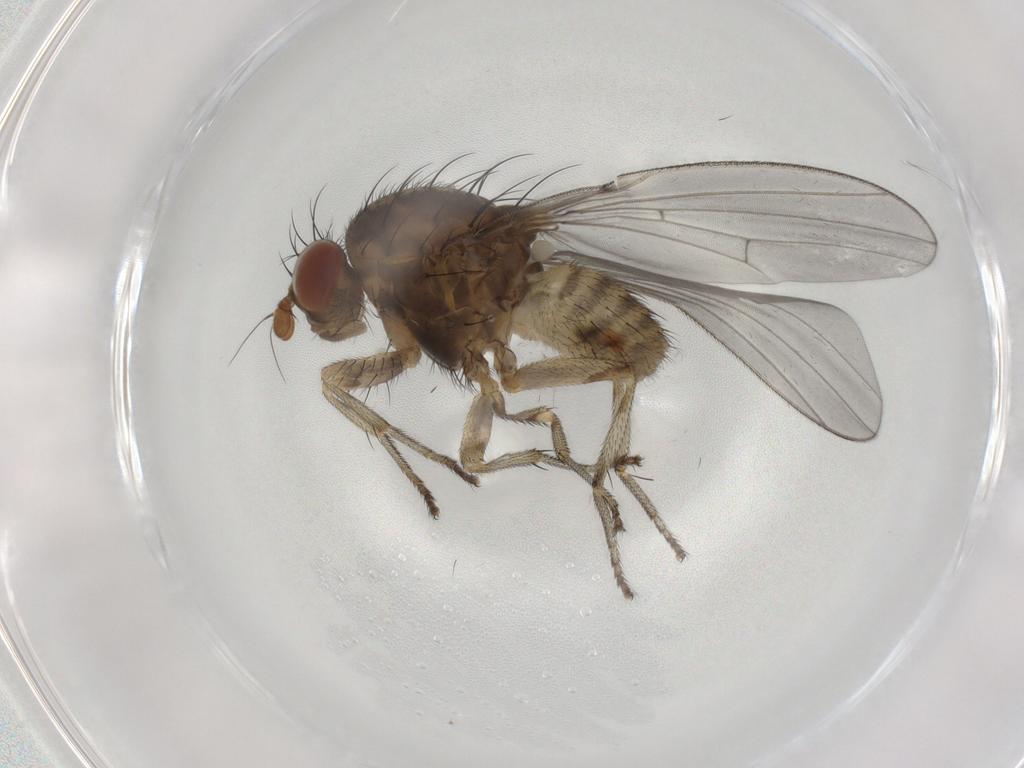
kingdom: Animalia
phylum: Arthropoda
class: Insecta
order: Diptera
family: Lauxaniidae
